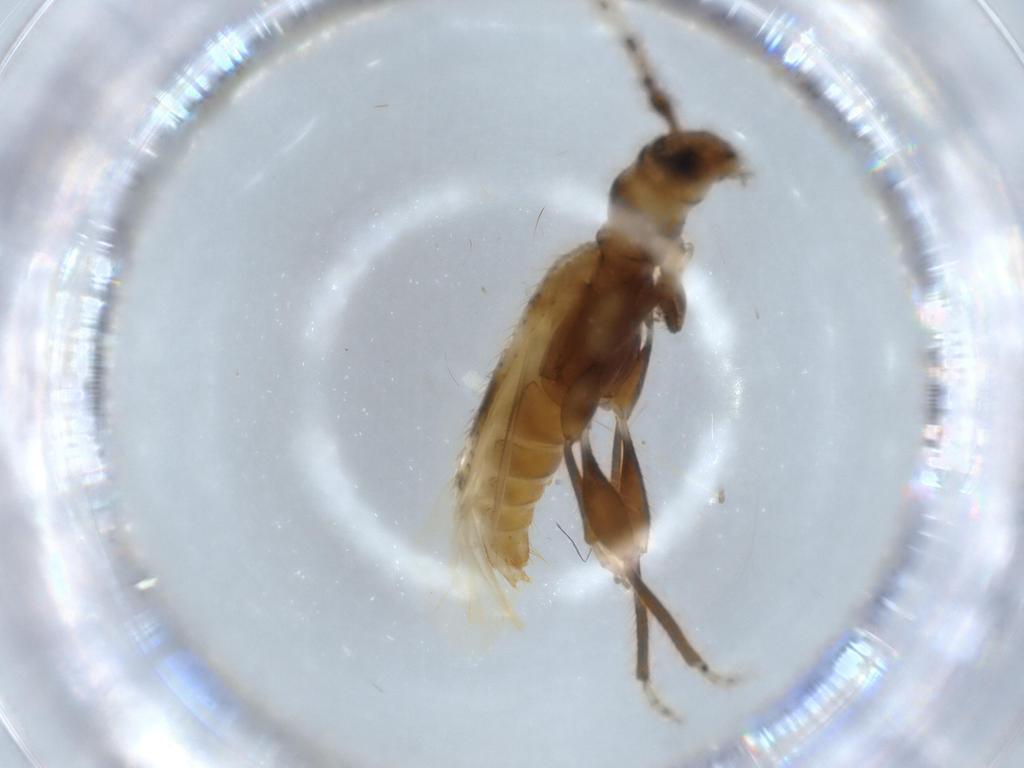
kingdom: Animalia
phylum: Arthropoda
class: Insecta
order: Coleoptera
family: Cerambycidae
